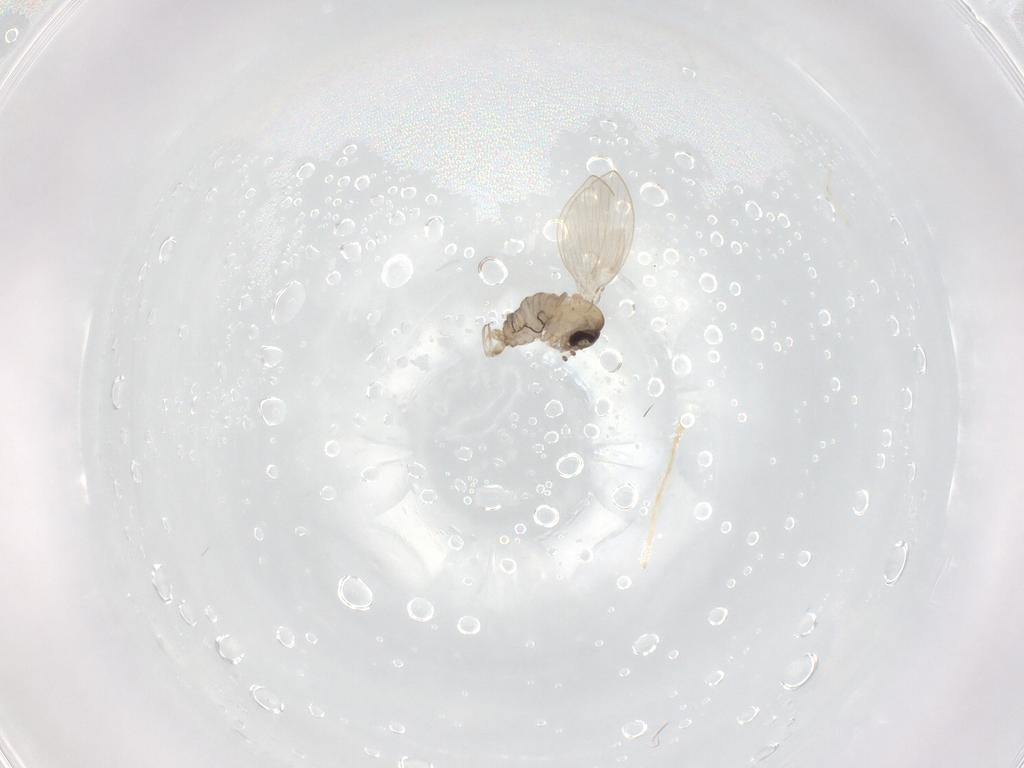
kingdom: Animalia
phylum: Arthropoda
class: Insecta
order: Diptera
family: Psychodidae
